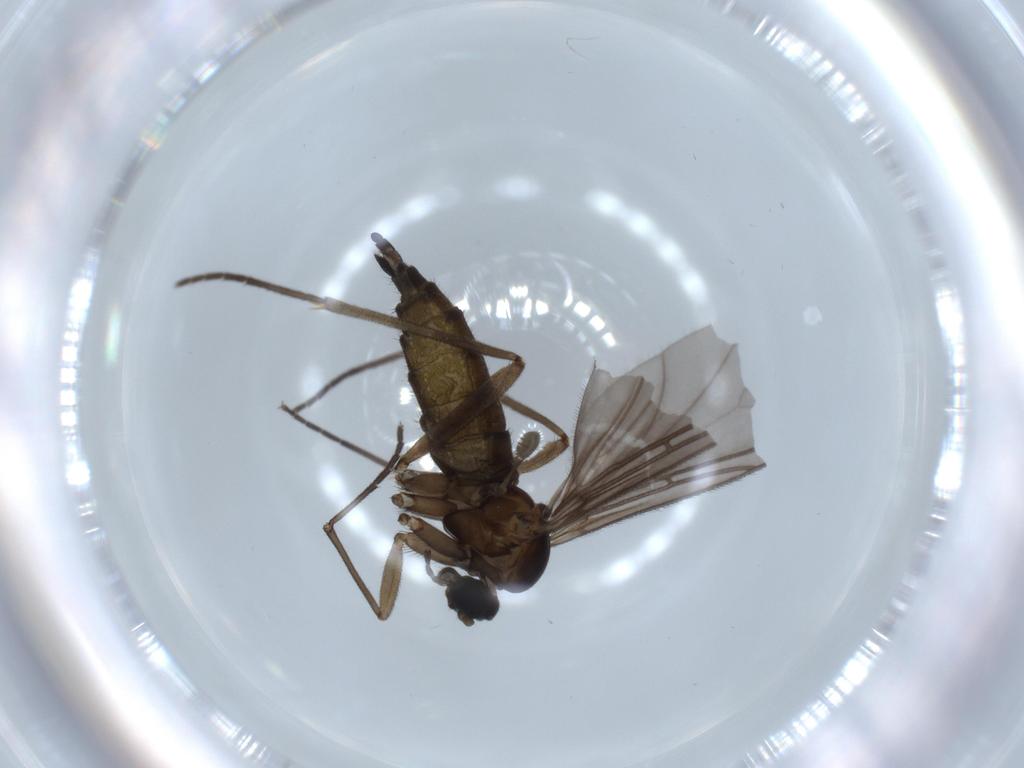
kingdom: Animalia
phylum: Arthropoda
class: Insecta
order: Diptera
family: Sciaridae
